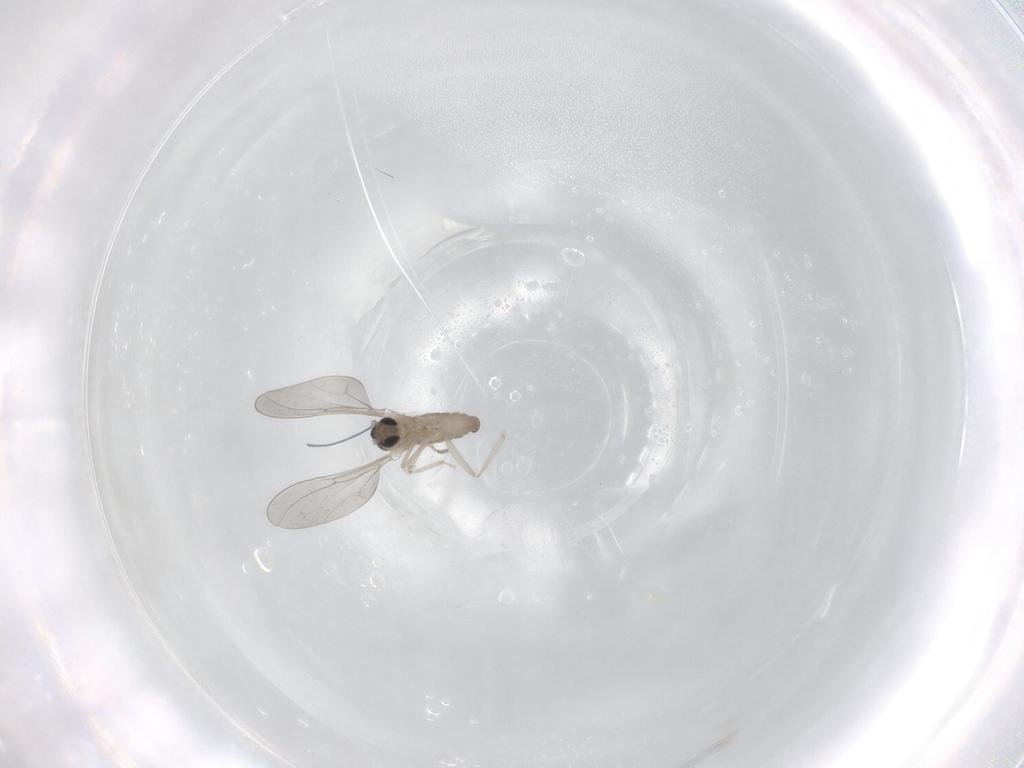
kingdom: Animalia
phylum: Arthropoda
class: Insecta
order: Diptera
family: Cecidomyiidae
